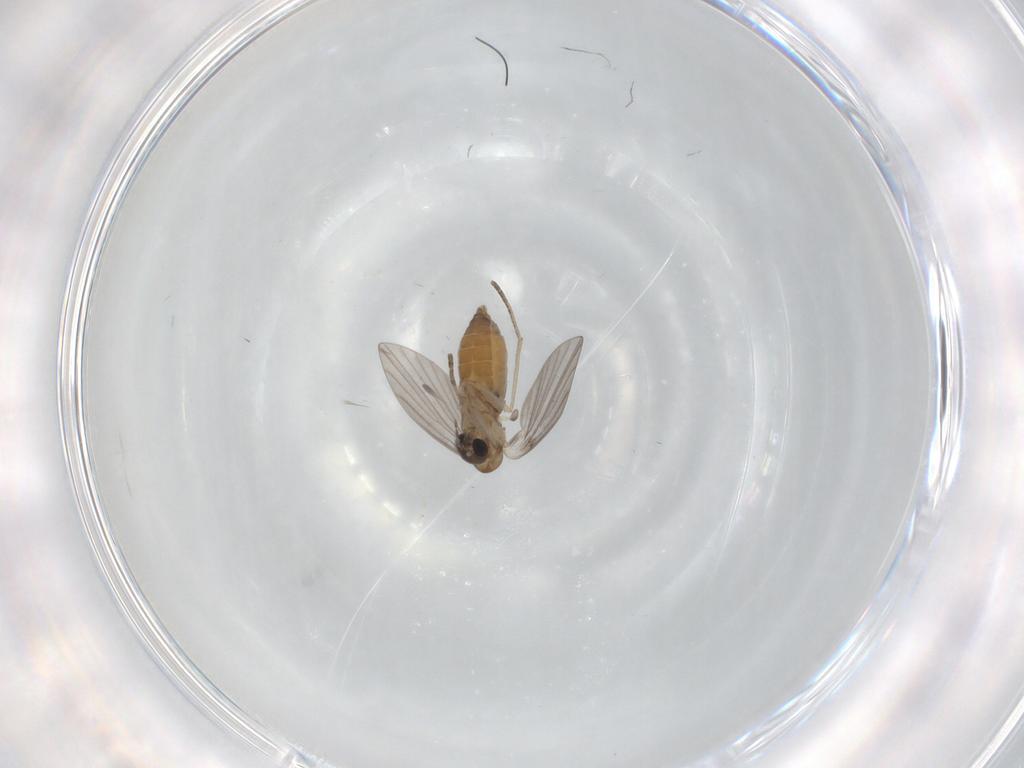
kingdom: Animalia
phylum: Arthropoda
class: Insecta
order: Diptera
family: Psychodidae
